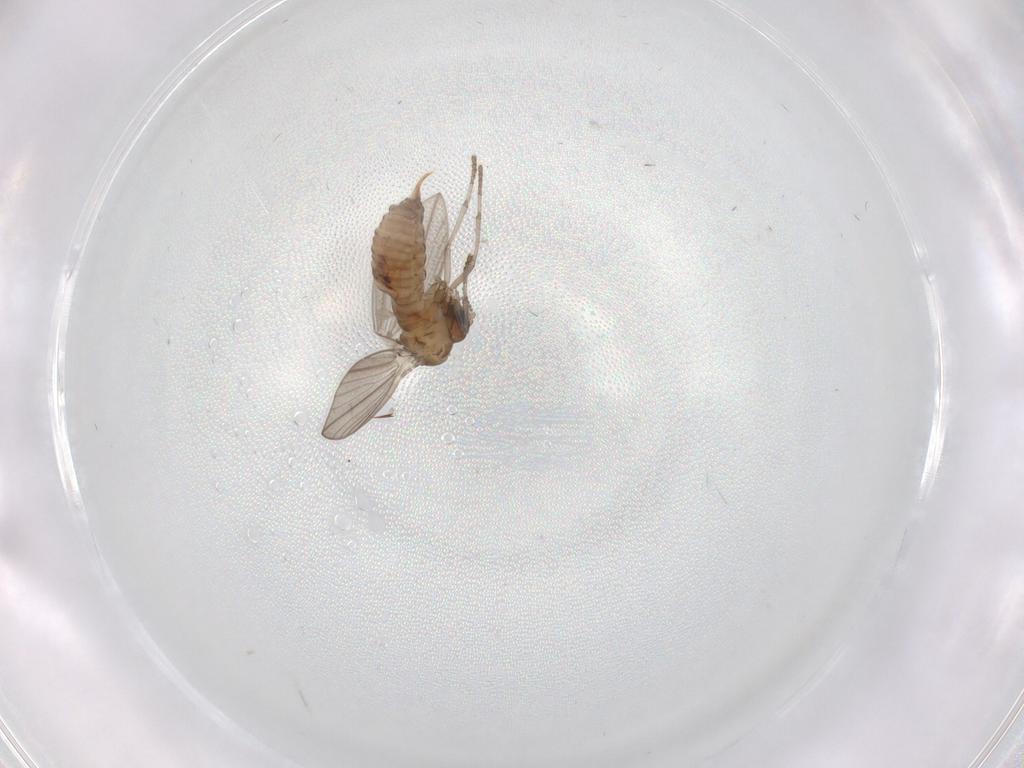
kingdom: Animalia
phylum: Arthropoda
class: Insecta
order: Diptera
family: Psychodidae
